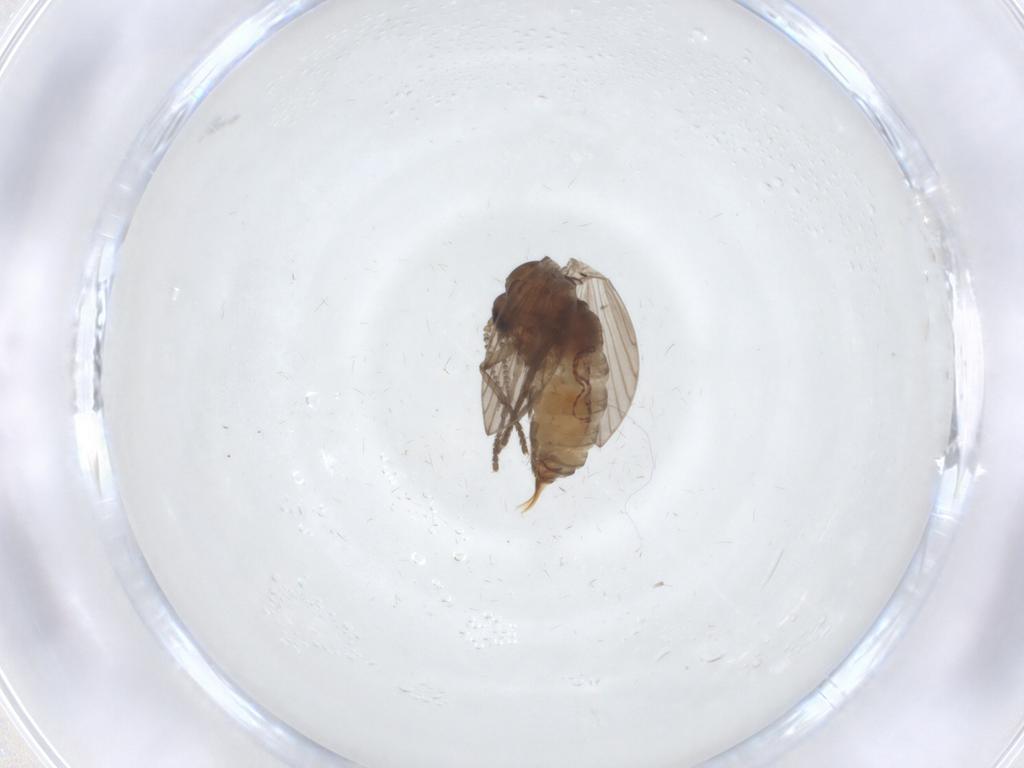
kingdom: Animalia
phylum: Arthropoda
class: Insecta
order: Diptera
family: Cecidomyiidae
